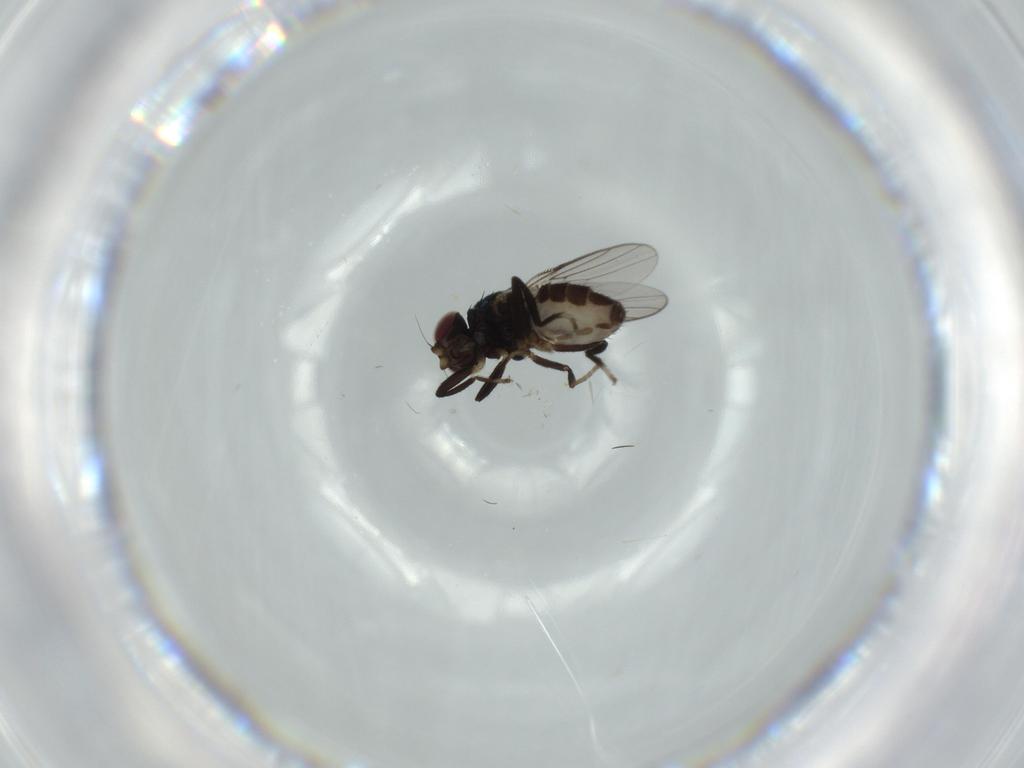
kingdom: Animalia
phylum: Arthropoda
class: Insecta
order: Diptera
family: Chloropidae
